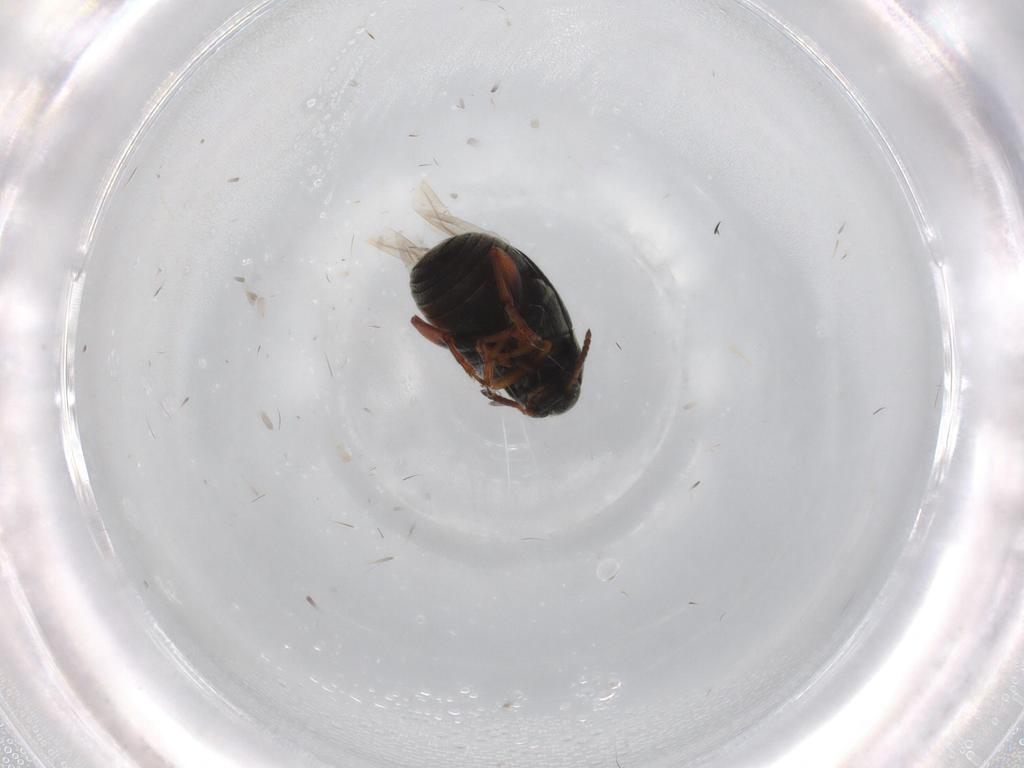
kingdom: Animalia
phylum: Arthropoda
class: Insecta
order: Coleoptera
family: Chrysomelidae
